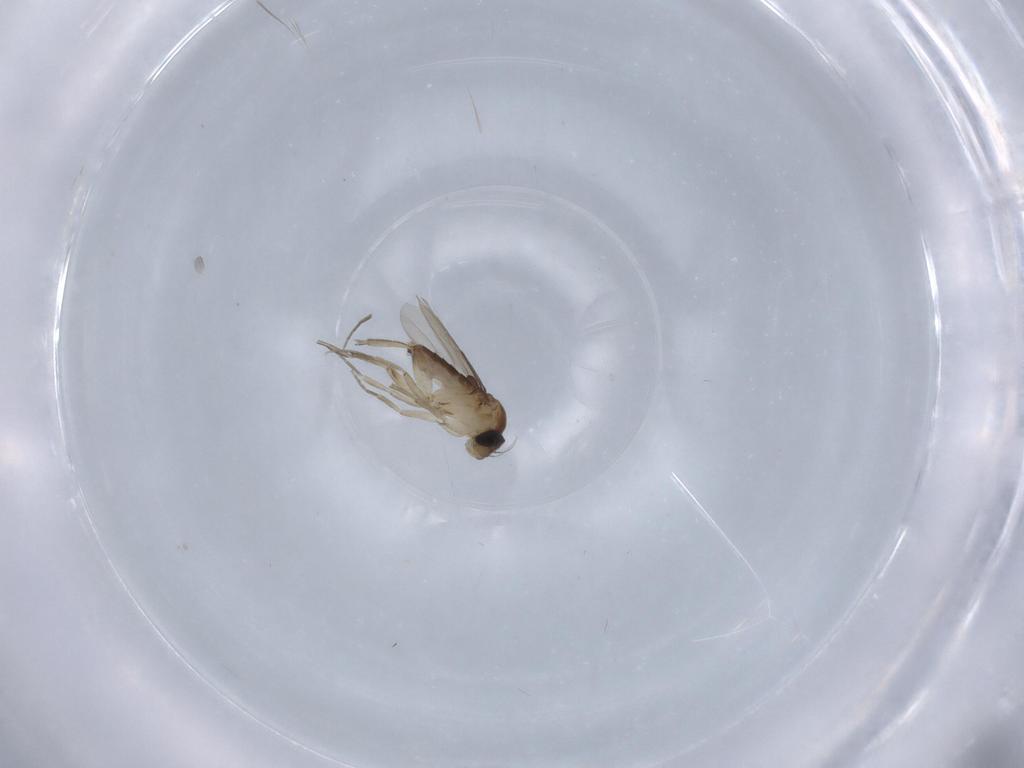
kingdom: Animalia
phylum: Arthropoda
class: Insecta
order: Diptera
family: Phoridae
